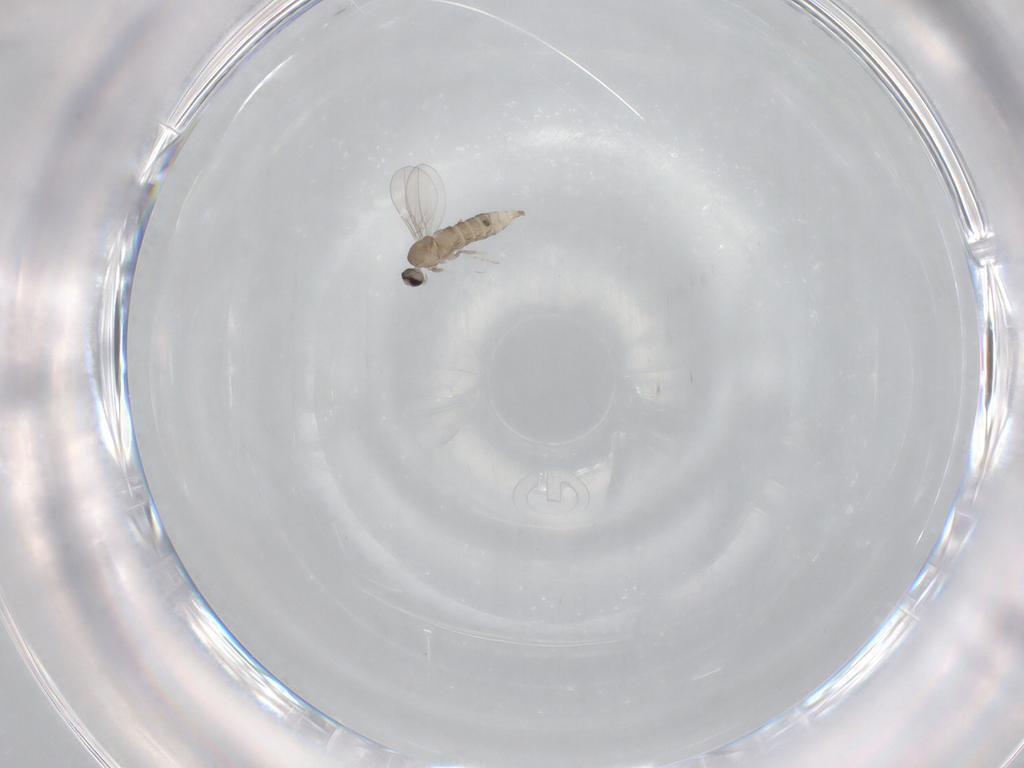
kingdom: Animalia
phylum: Arthropoda
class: Insecta
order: Diptera
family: Cecidomyiidae
